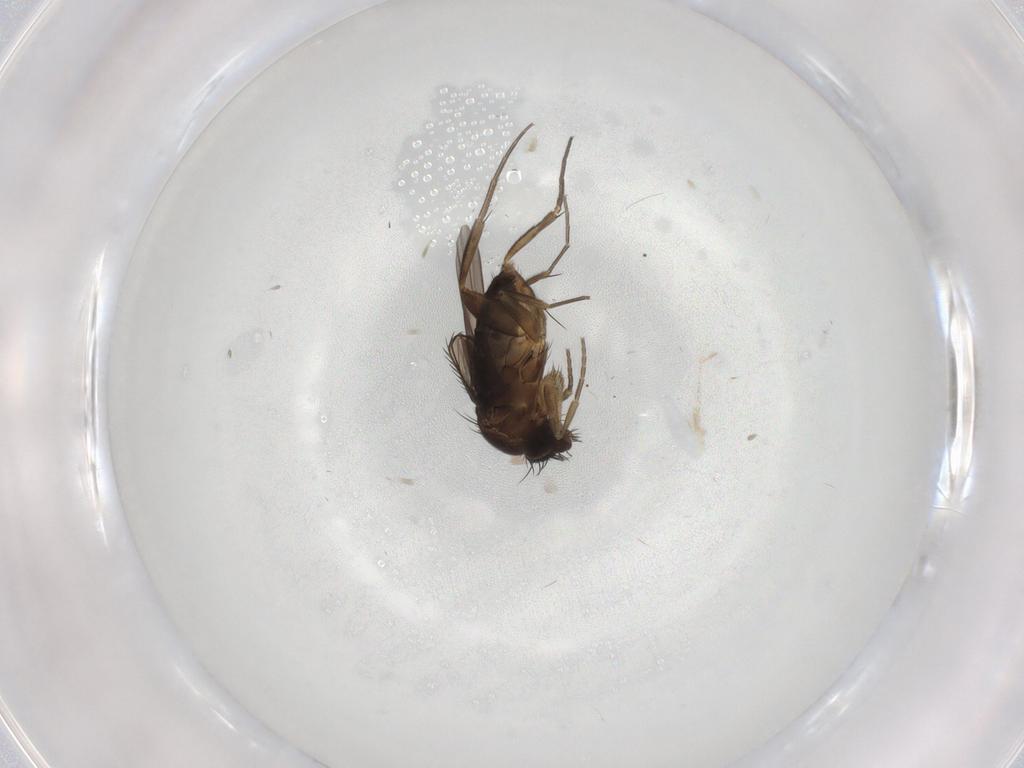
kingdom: Animalia
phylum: Arthropoda
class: Insecta
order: Diptera
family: Phoridae
